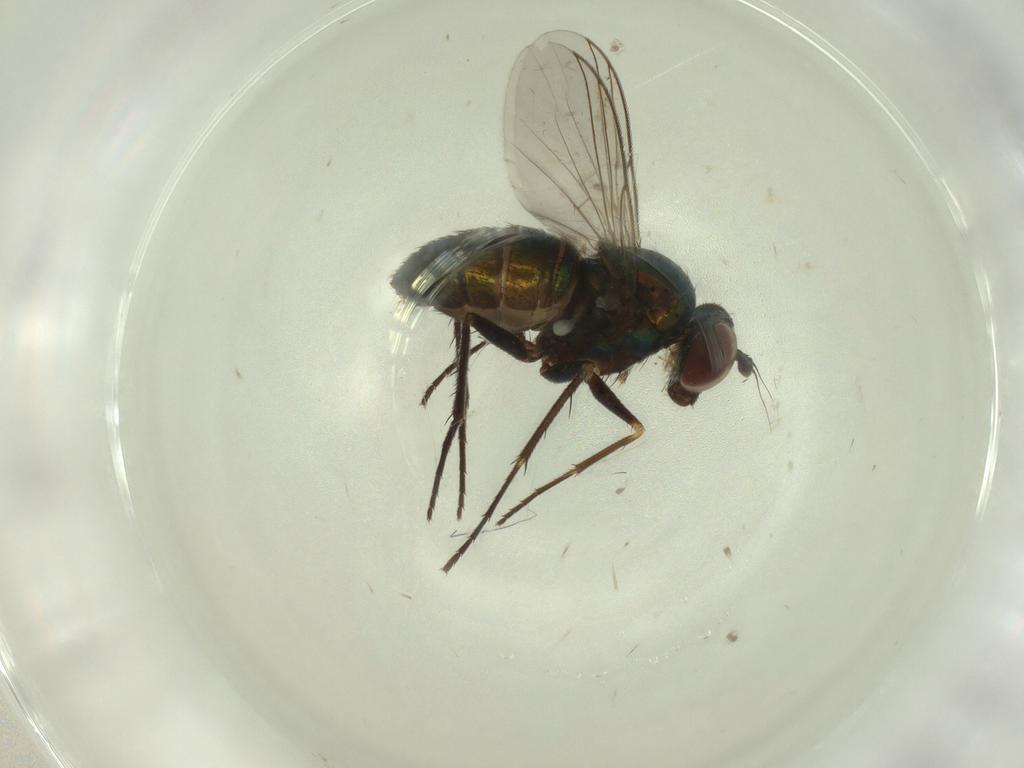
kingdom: Animalia
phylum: Arthropoda
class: Insecta
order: Diptera
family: Dolichopodidae
